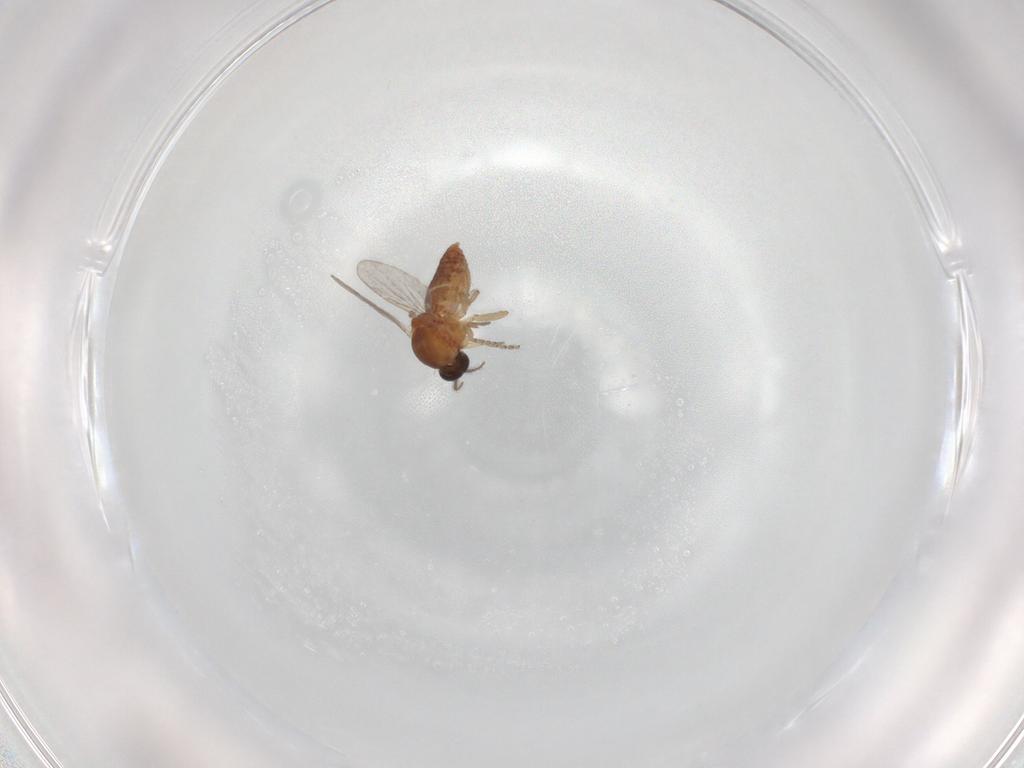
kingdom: Animalia
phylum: Arthropoda
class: Insecta
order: Diptera
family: Ceratopogonidae
